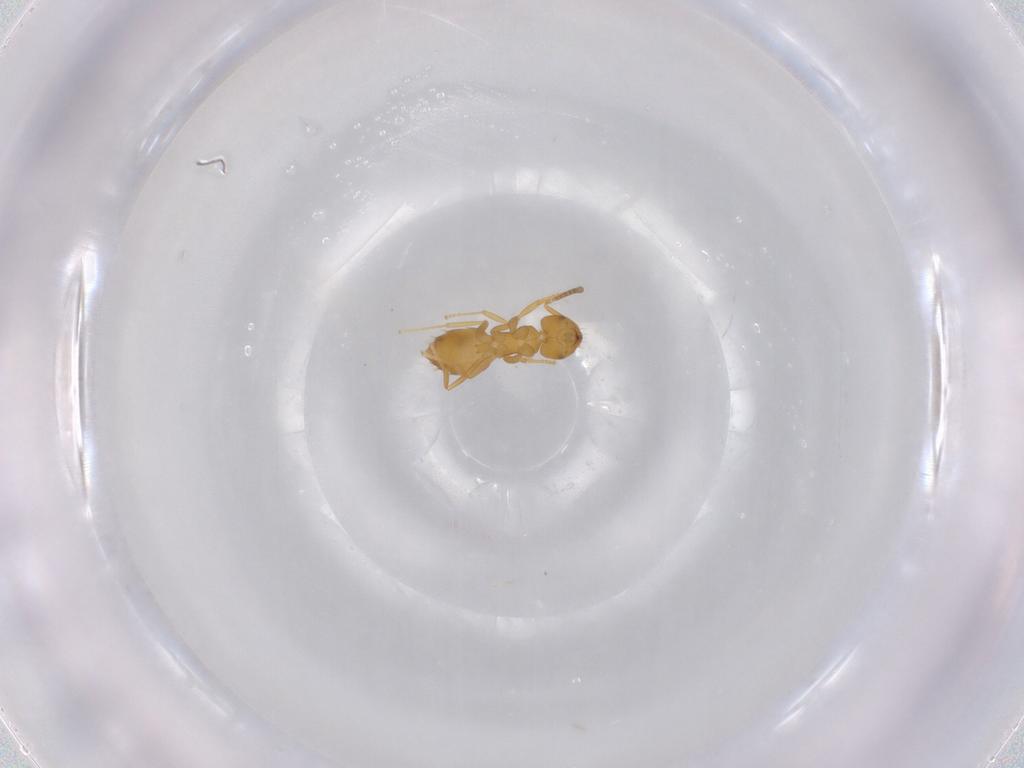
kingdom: Animalia
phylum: Arthropoda
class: Insecta
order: Hymenoptera
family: Formicidae
